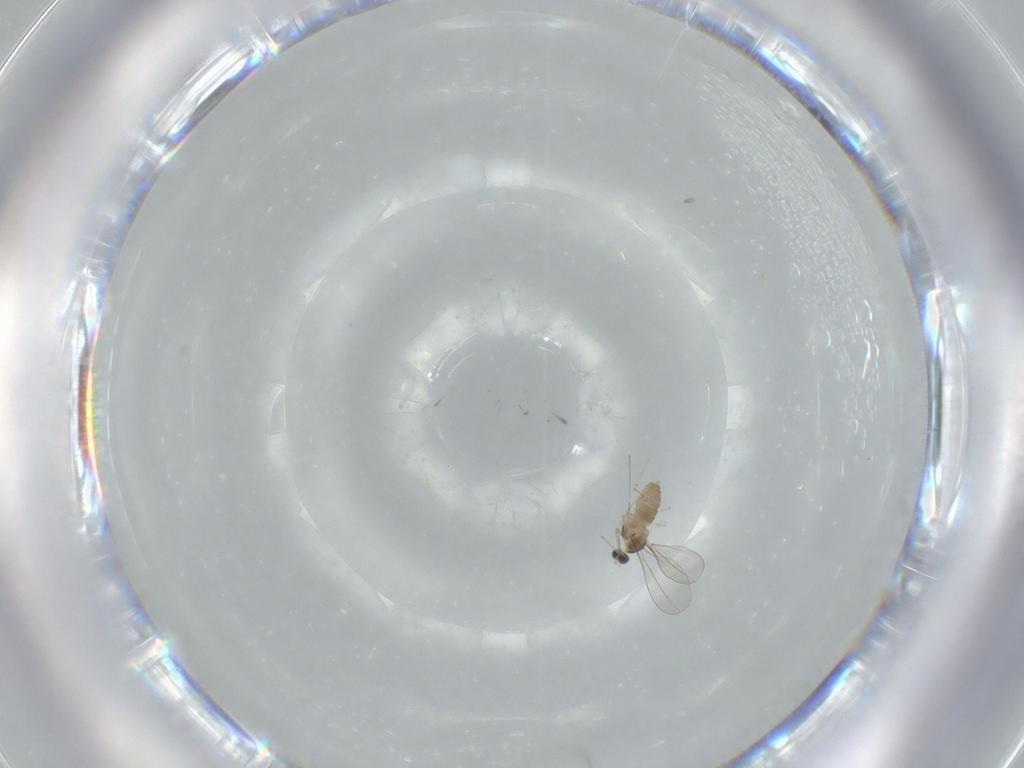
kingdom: Animalia
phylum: Arthropoda
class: Insecta
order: Diptera
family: Cecidomyiidae
